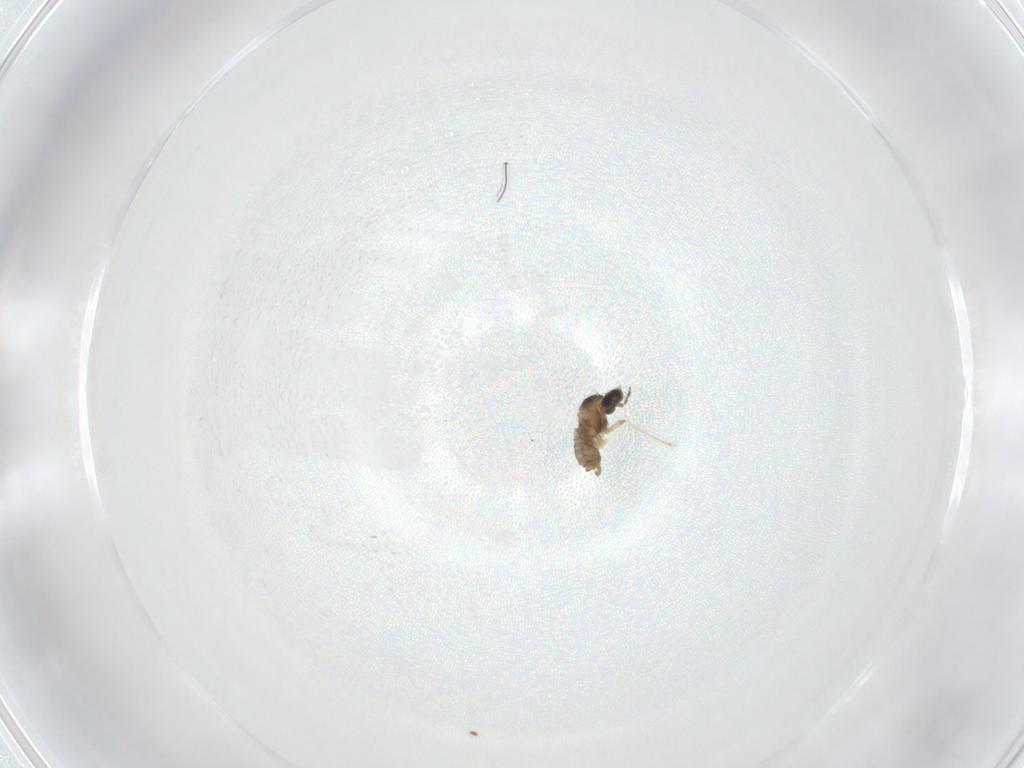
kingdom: Animalia
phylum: Arthropoda
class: Insecta
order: Diptera
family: Cecidomyiidae
